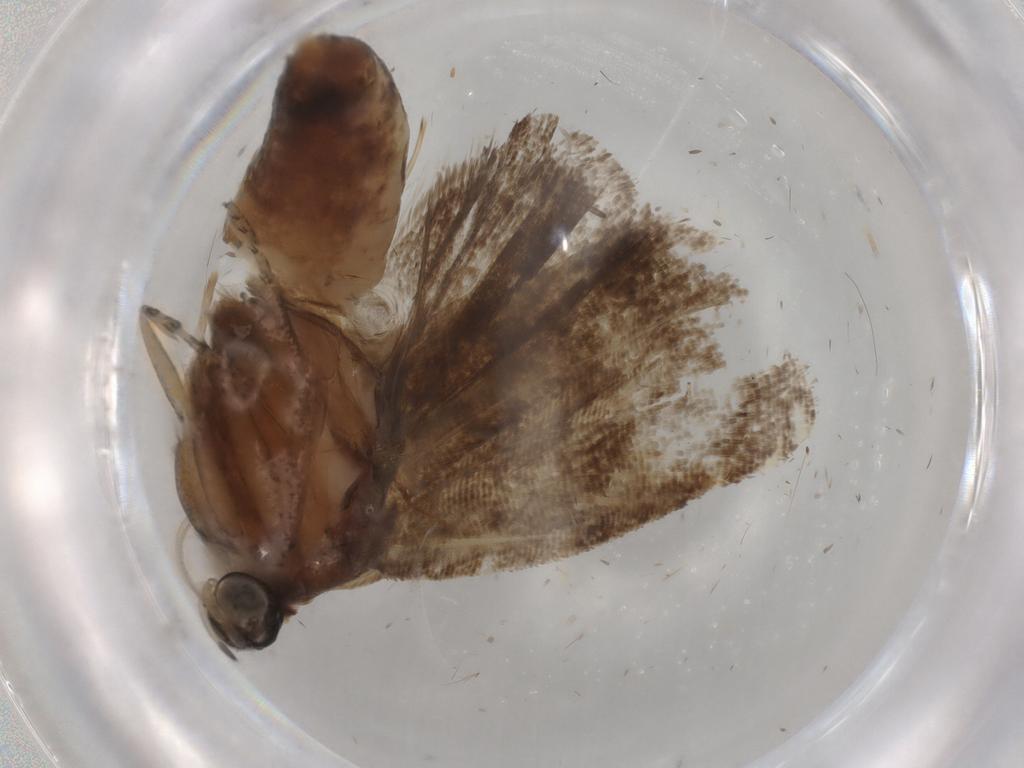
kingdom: Animalia
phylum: Arthropoda
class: Insecta
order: Lepidoptera
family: Tortricidae
